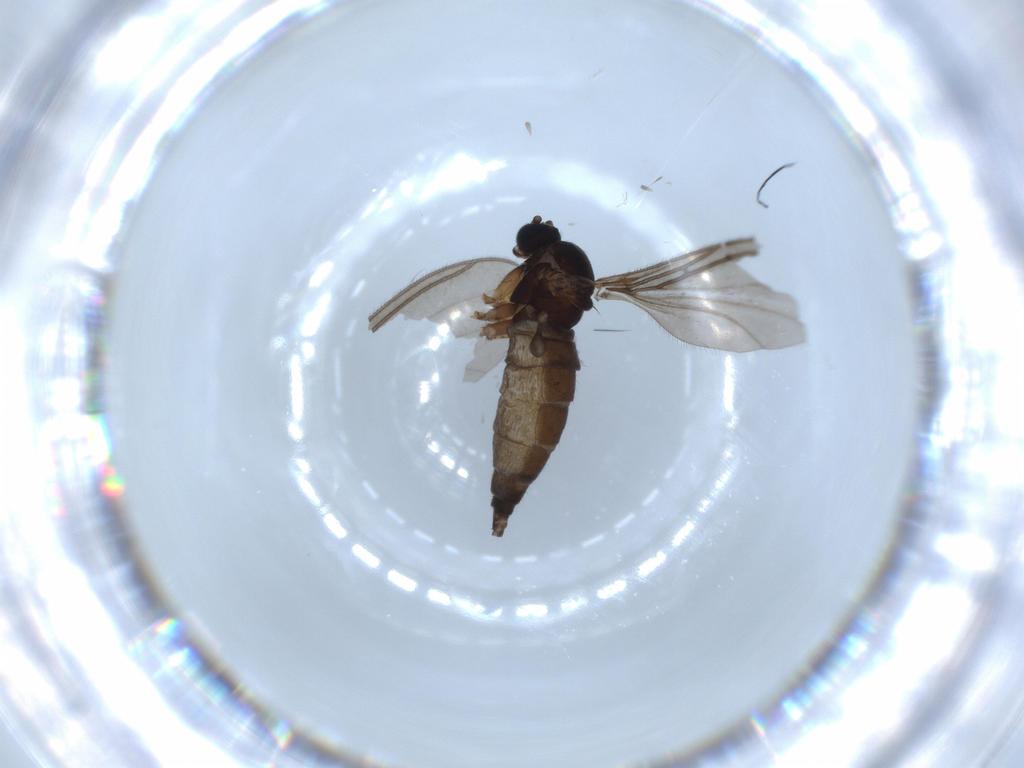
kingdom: Animalia
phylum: Arthropoda
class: Insecta
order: Diptera
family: Sciaridae
